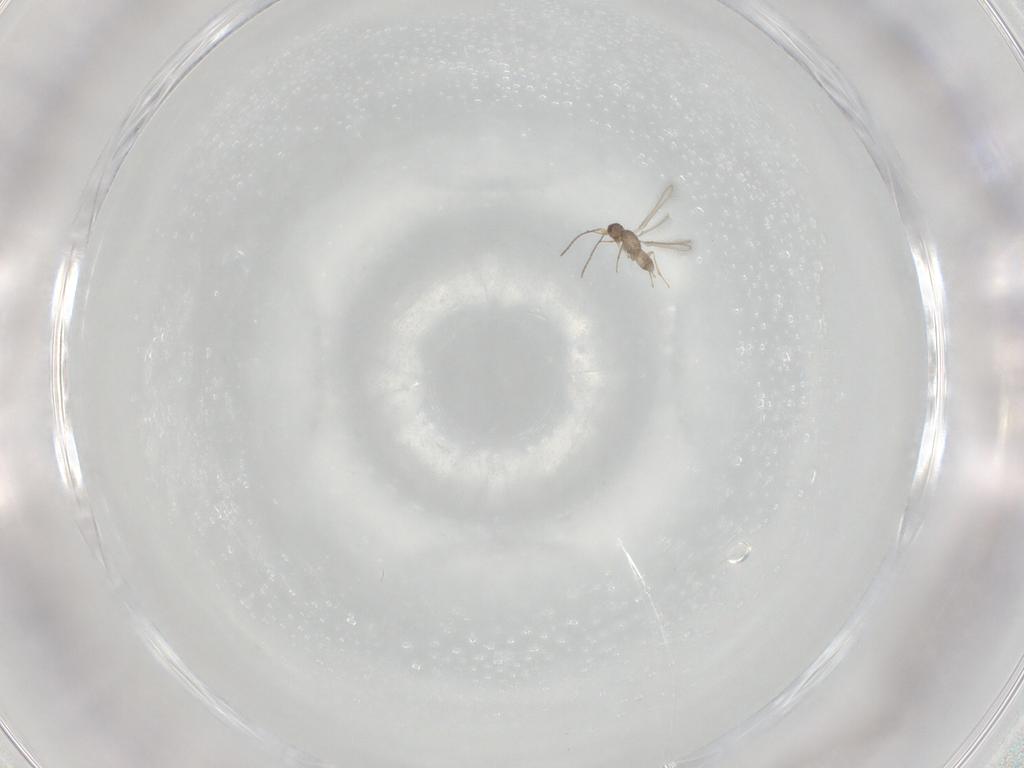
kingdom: Animalia
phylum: Arthropoda
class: Insecta
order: Hymenoptera
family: Mymaridae
